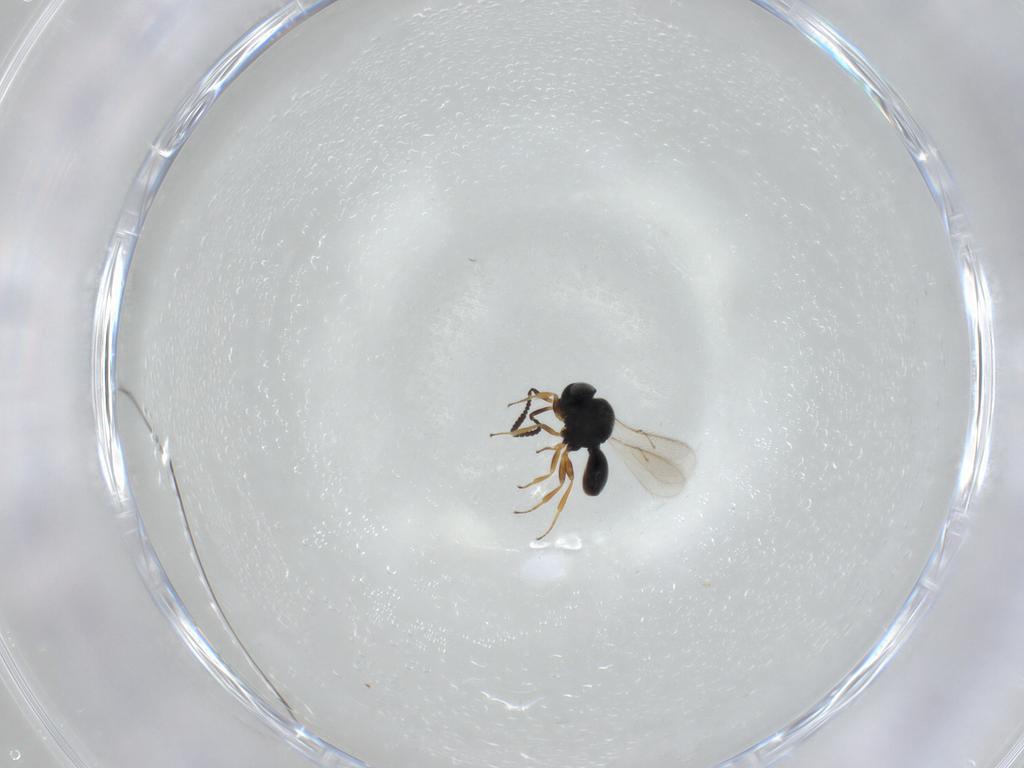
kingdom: Animalia
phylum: Arthropoda
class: Insecta
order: Hymenoptera
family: Scelionidae
